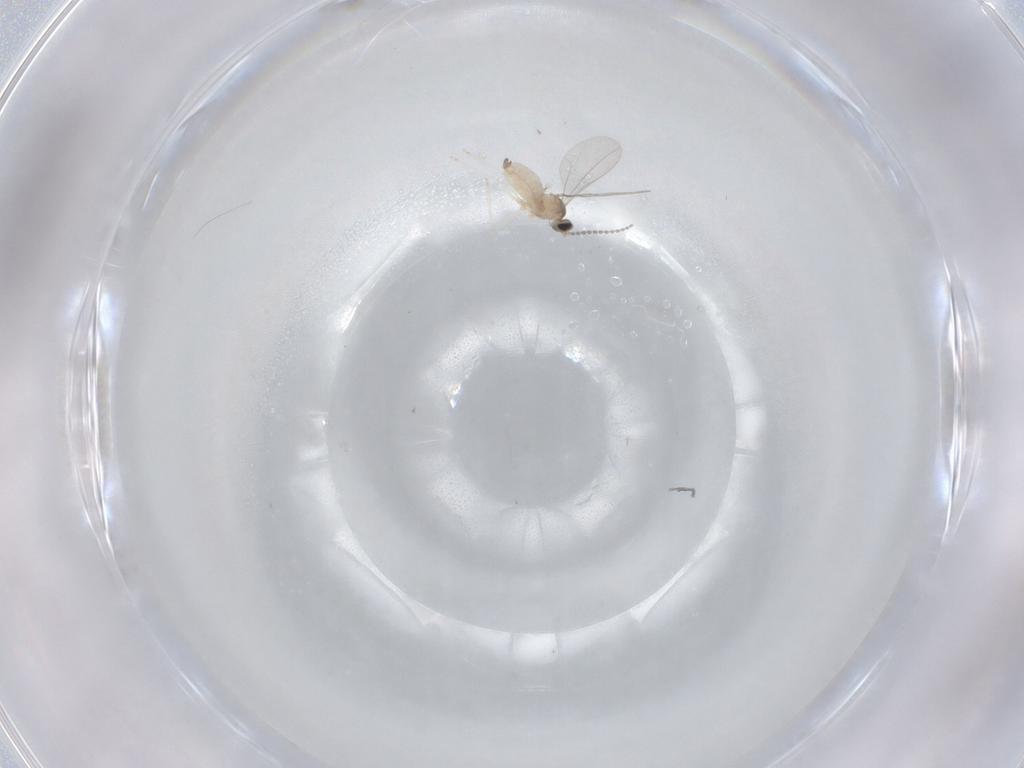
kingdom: Animalia
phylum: Arthropoda
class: Insecta
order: Diptera
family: Cecidomyiidae
